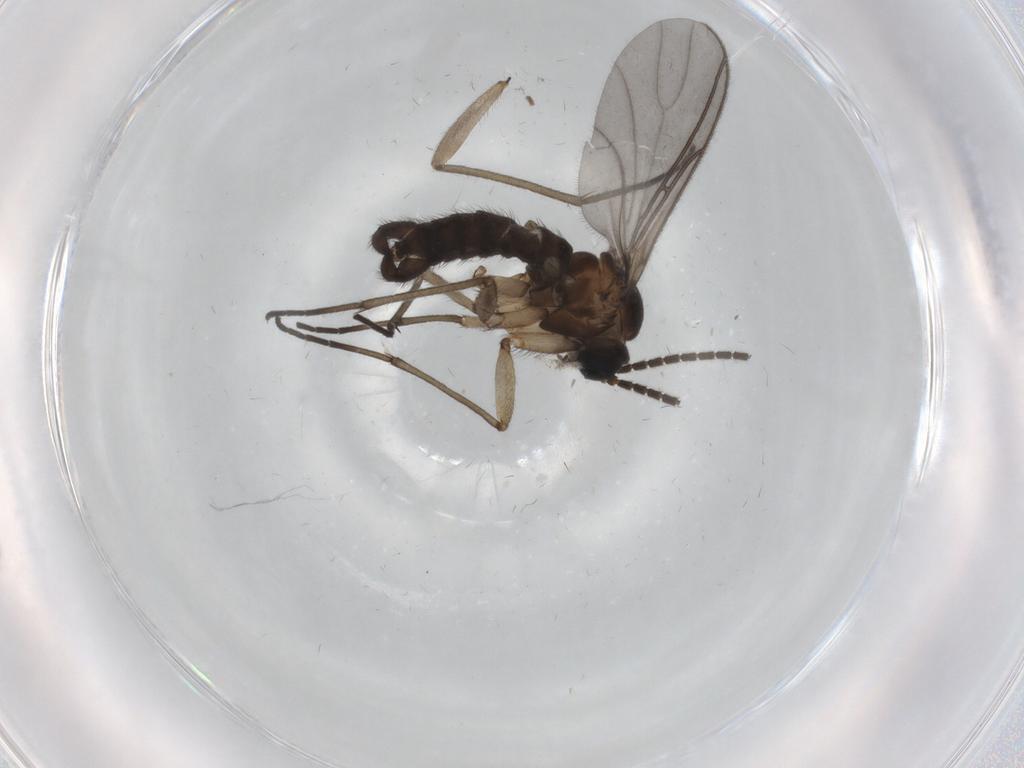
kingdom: Animalia
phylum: Arthropoda
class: Insecta
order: Diptera
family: Sciaridae
